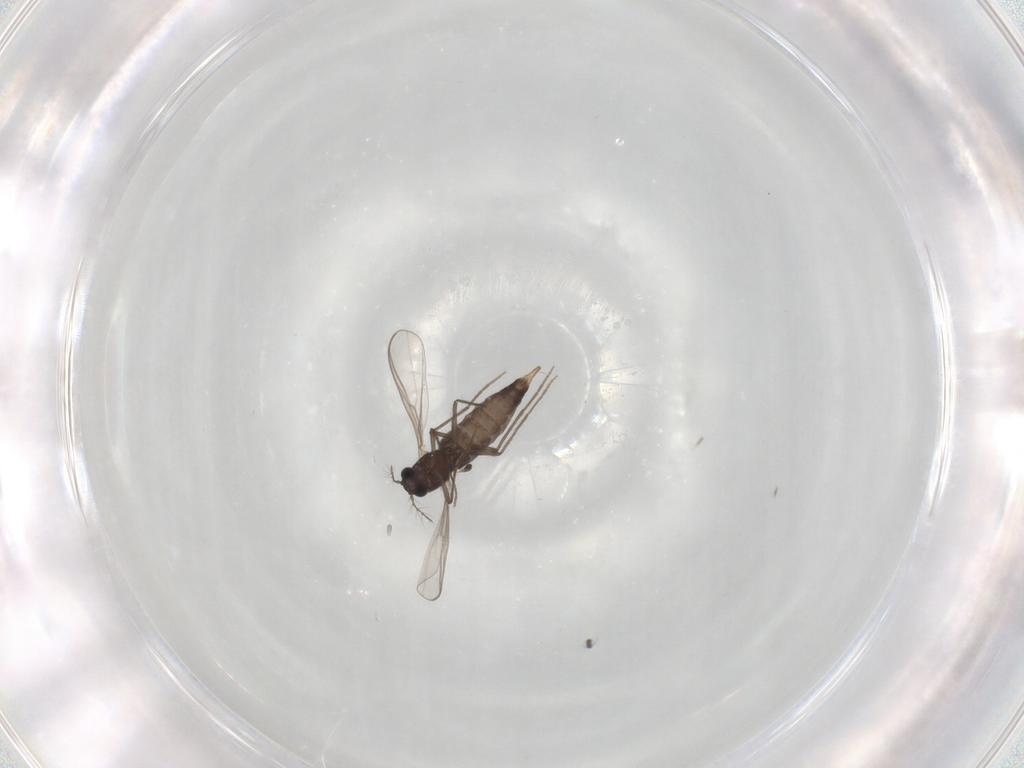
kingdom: Animalia
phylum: Arthropoda
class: Insecta
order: Diptera
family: Chironomidae
